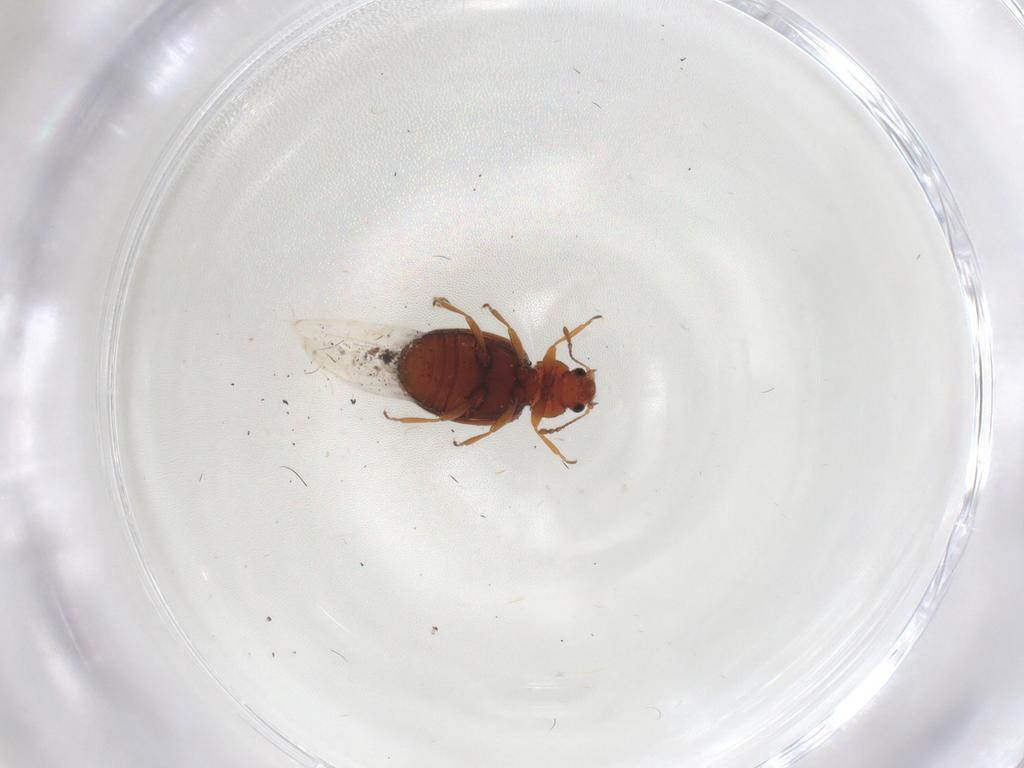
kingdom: Animalia
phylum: Arthropoda
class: Insecta
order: Coleoptera
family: Latridiidae
